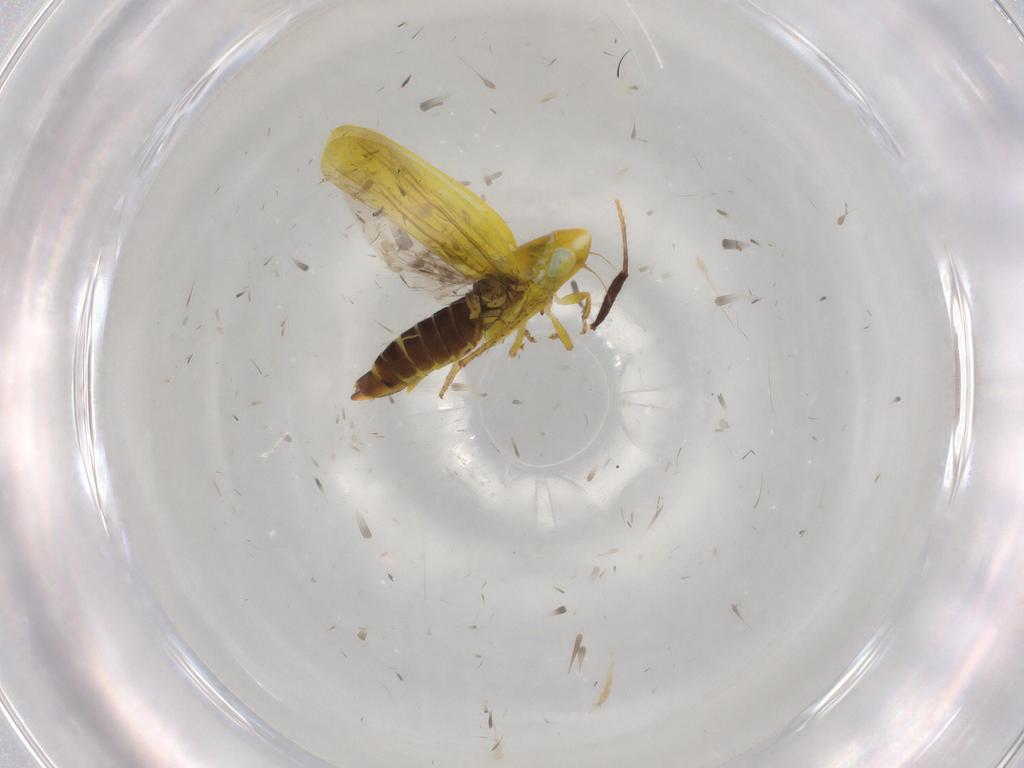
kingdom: Animalia
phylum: Arthropoda
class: Insecta
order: Hemiptera
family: Cicadellidae
